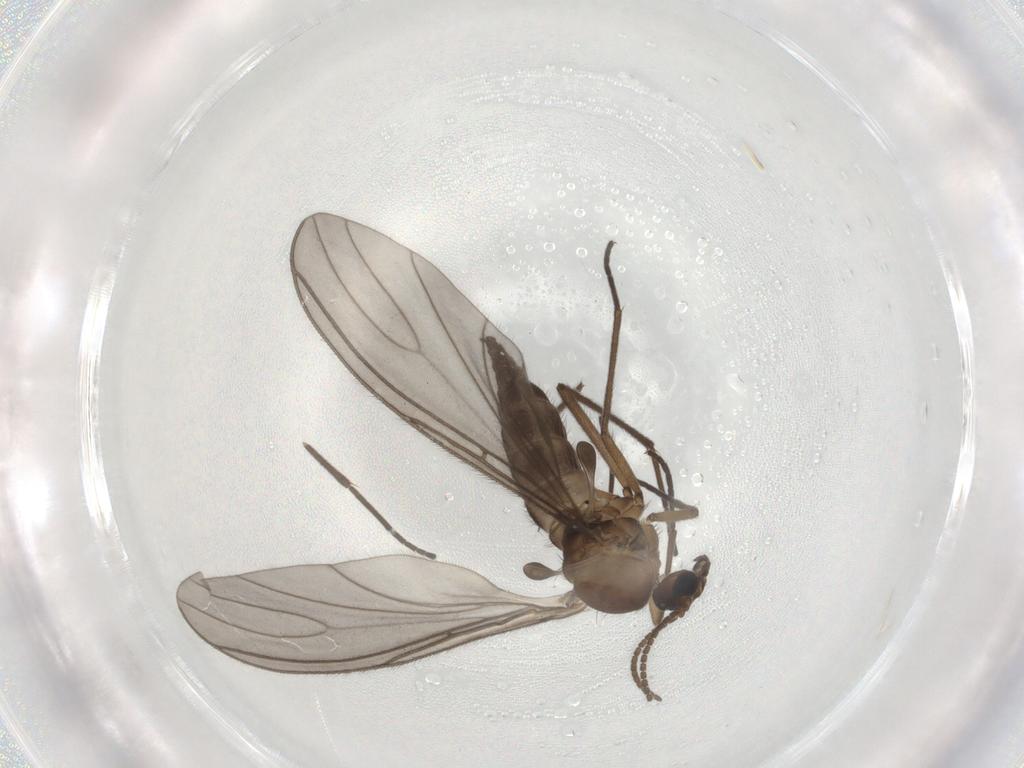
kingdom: Animalia
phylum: Arthropoda
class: Insecta
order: Diptera
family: Sciaridae
